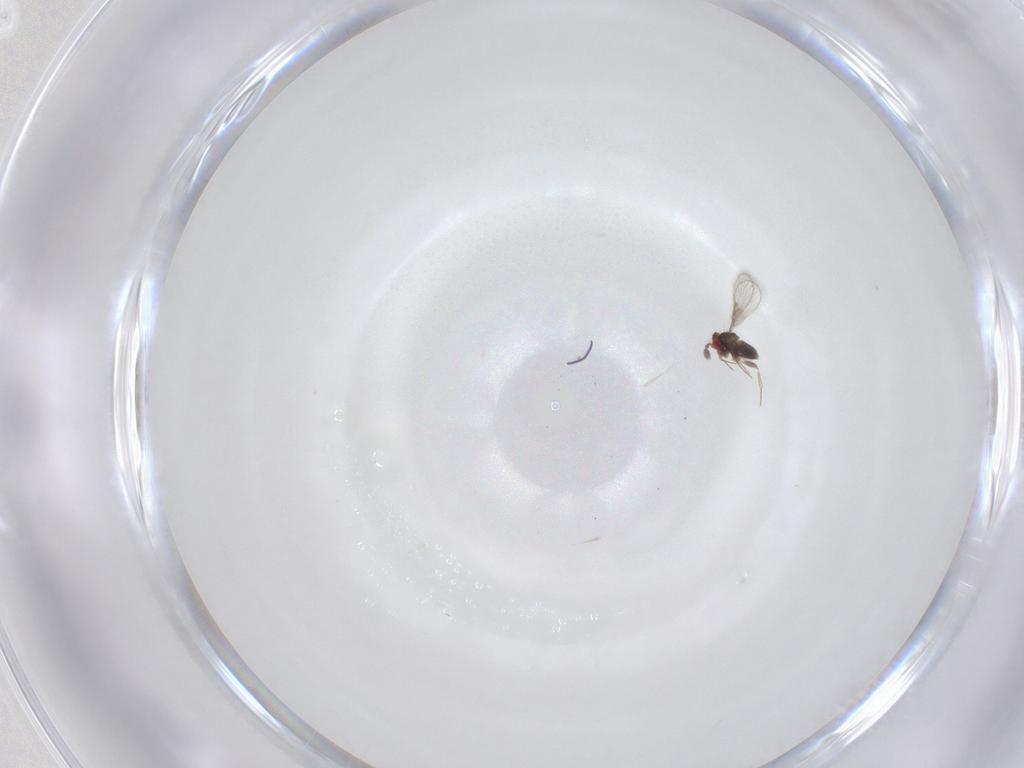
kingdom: Animalia
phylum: Arthropoda
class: Insecta
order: Hymenoptera
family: Trichogrammatidae
